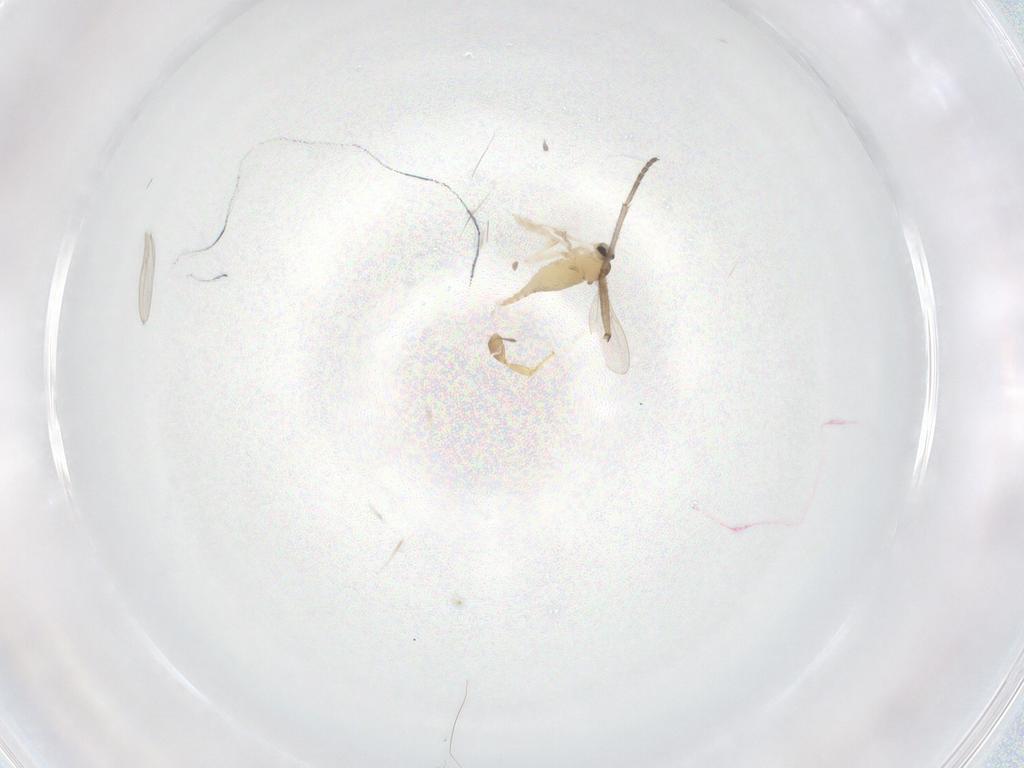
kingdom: Animalia
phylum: Arthropoda
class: Insecta
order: Diptera
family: Cecidomyiidae
